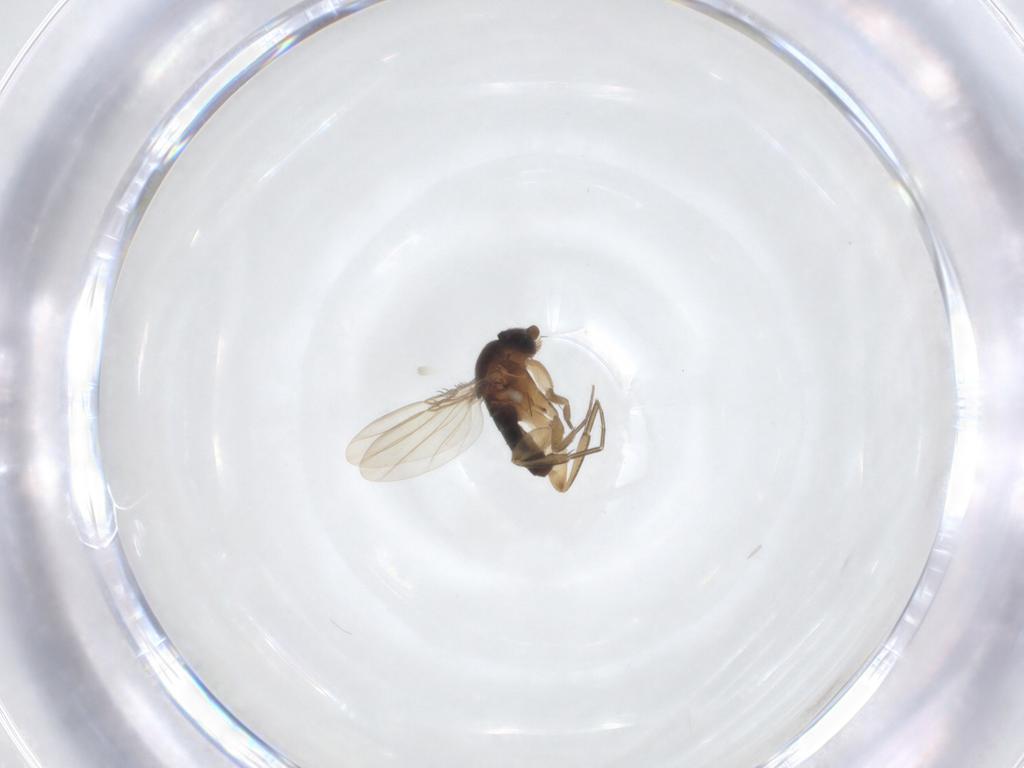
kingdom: Animalia
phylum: Arthropoda
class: Insecta
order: Diptera
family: Phoridae
